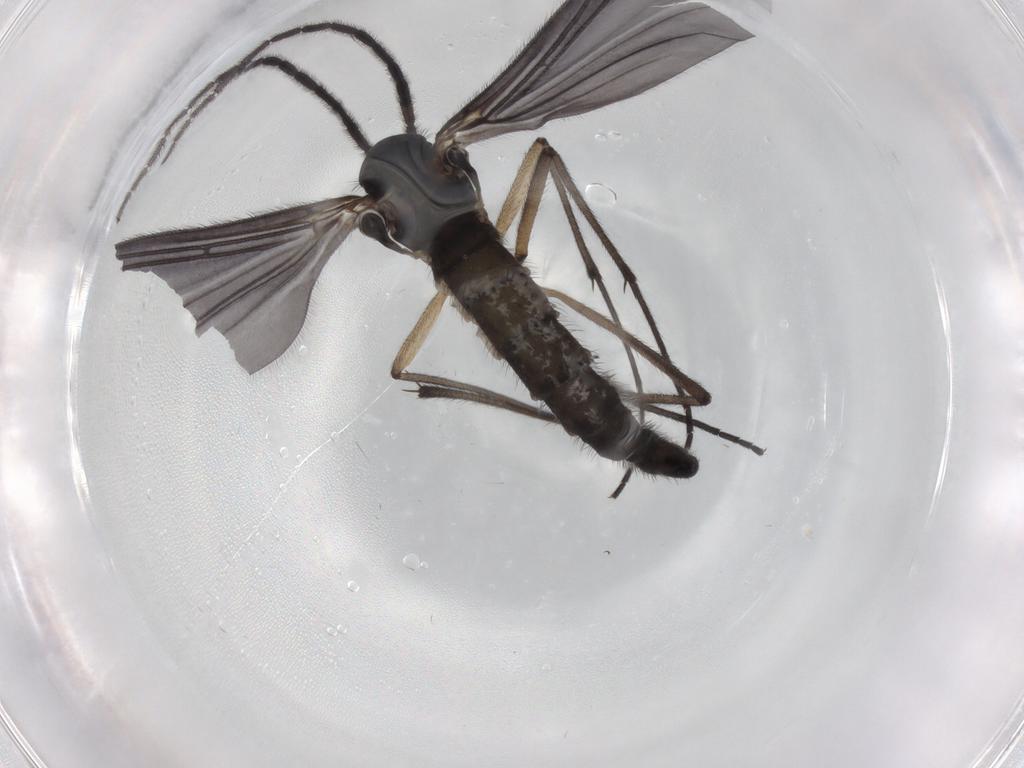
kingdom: Animalia
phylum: Arthropoda
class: Insecta
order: Diptera
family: Sciaridae
